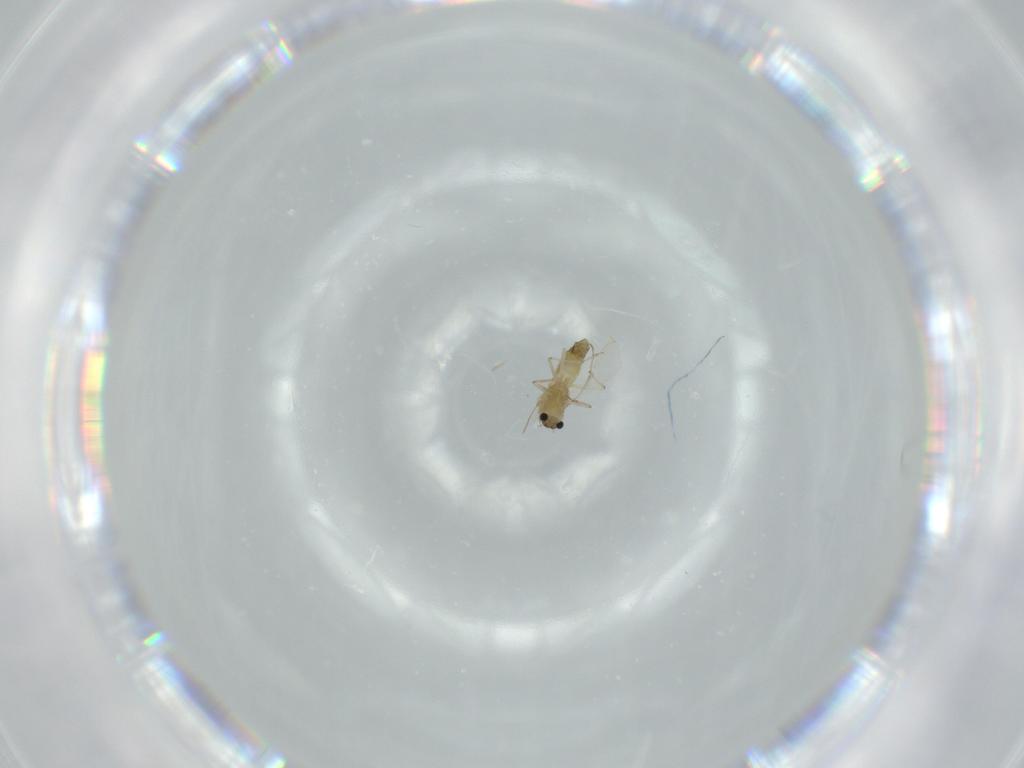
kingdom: Animalia
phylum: Arthropoda
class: Insecta
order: Diptera
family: Chironomidae
